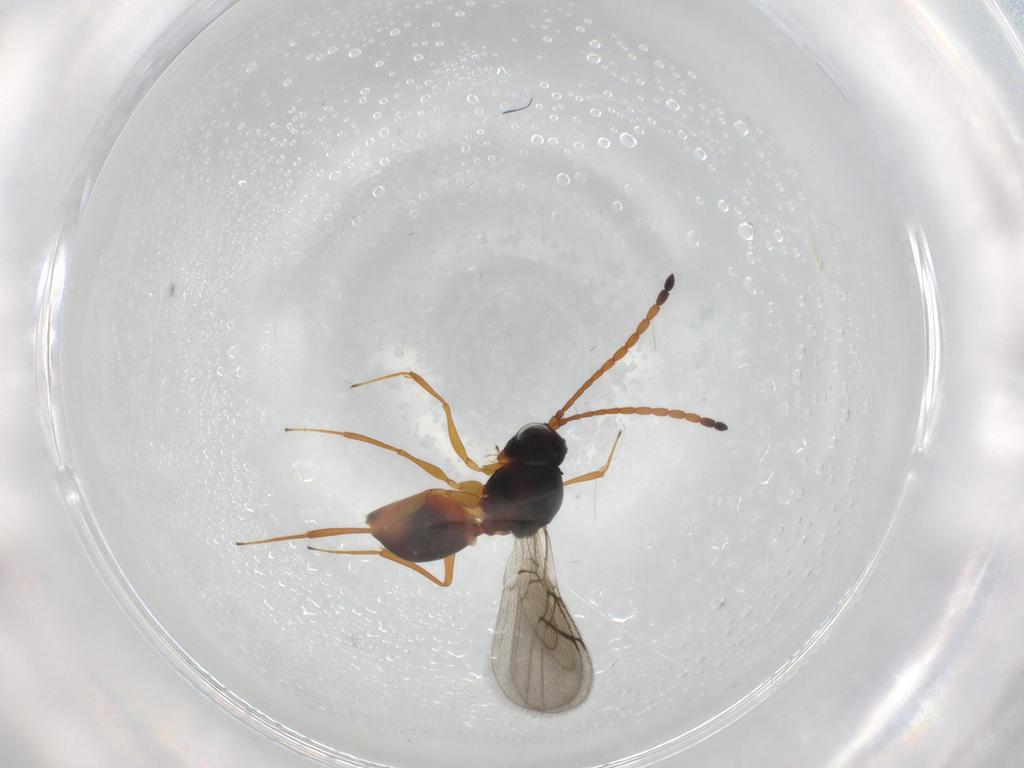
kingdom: Animalia
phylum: Arthropoda
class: Insecta
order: Hymenoptera
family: Figitidae
